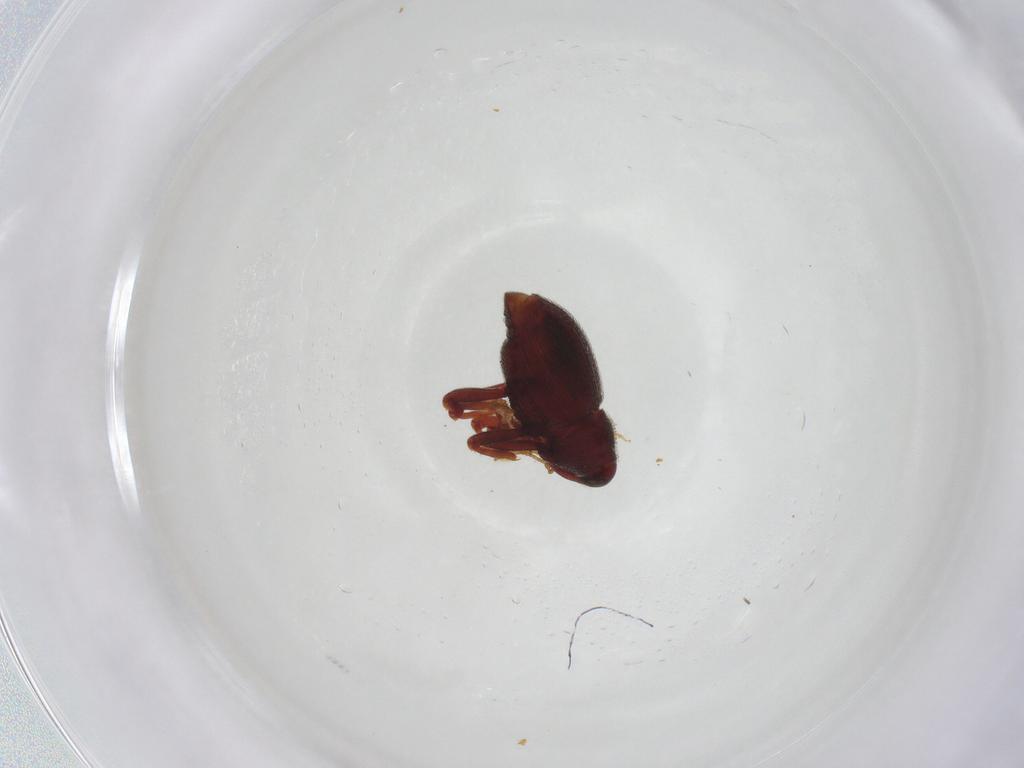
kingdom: Animalia
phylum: Arthropoda
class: Insecta
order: Coleoptera
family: Curculionidae
